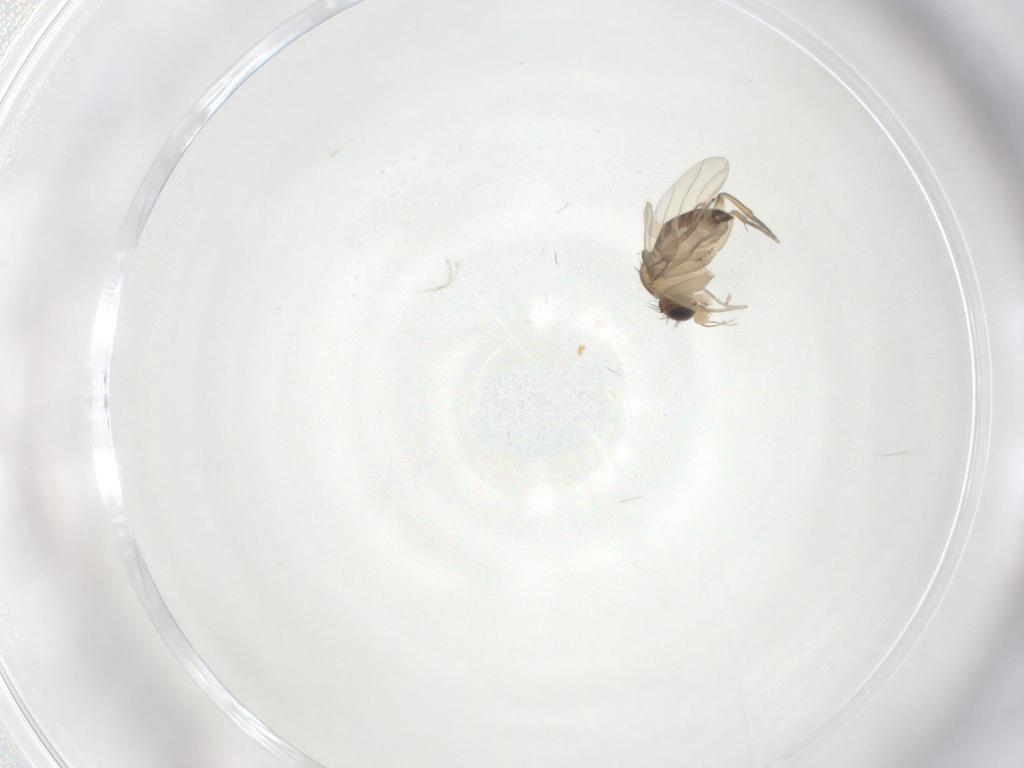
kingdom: Animalia
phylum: Arthropoda
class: Insecta
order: Diptera
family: Phoridae
